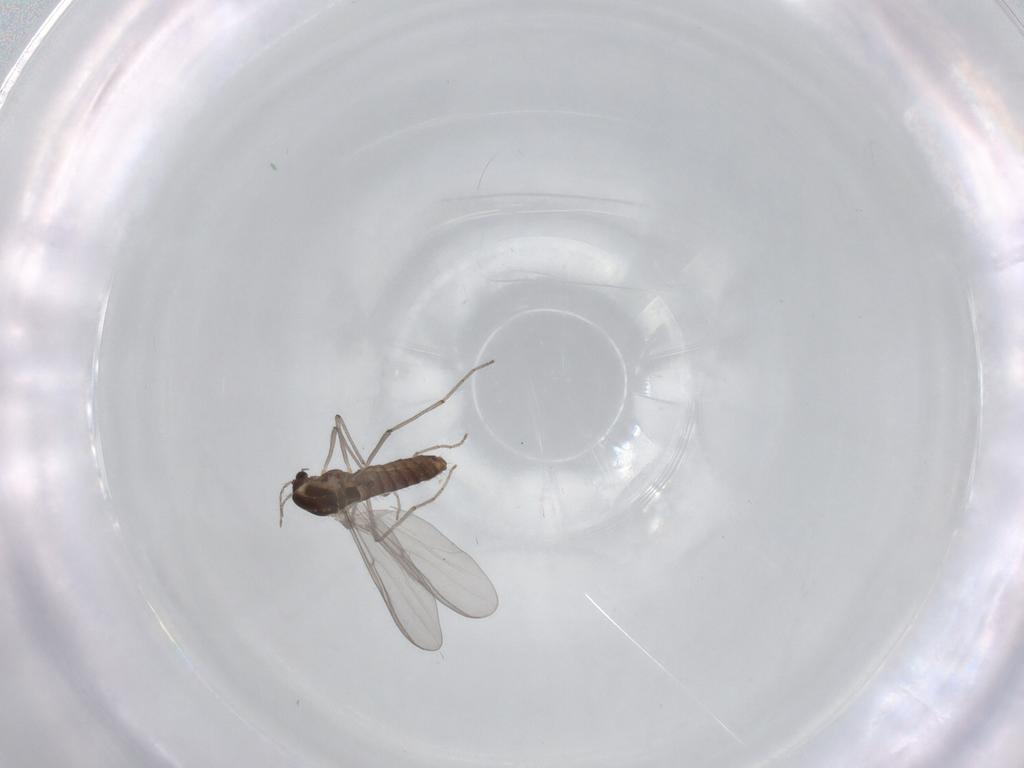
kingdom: Animalia
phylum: Arthropoda
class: Insecta
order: Diptera
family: Chironomidae
